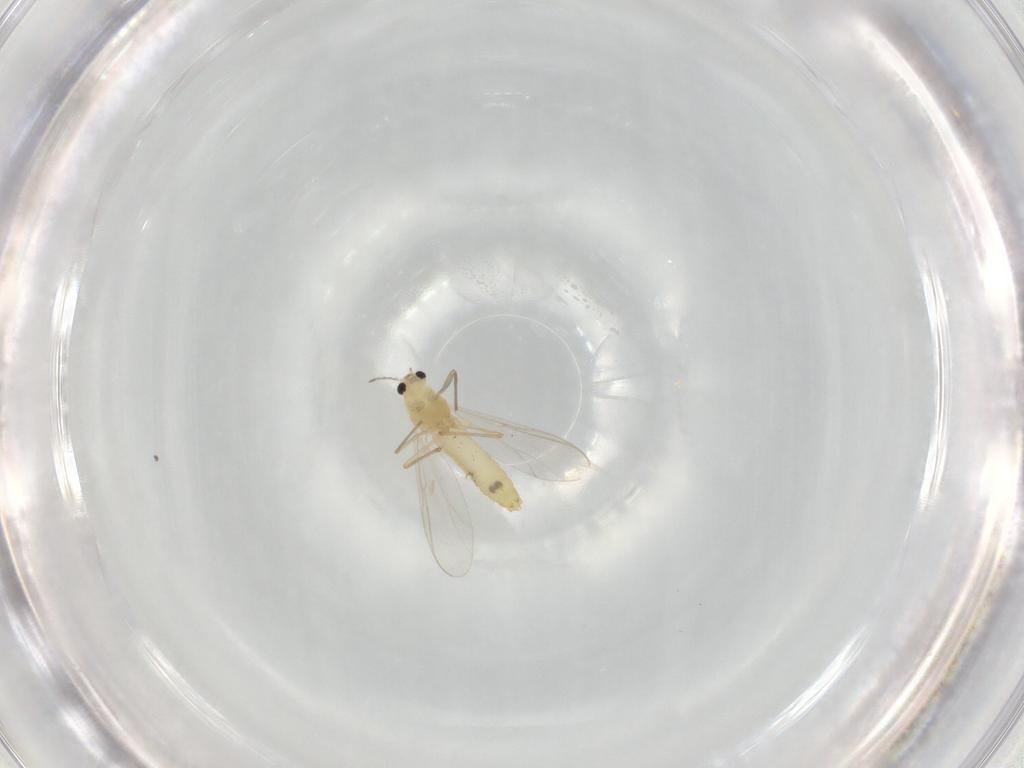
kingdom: Animalia
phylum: Arthropoda
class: Insecta
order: Diptera
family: Chironomidae
